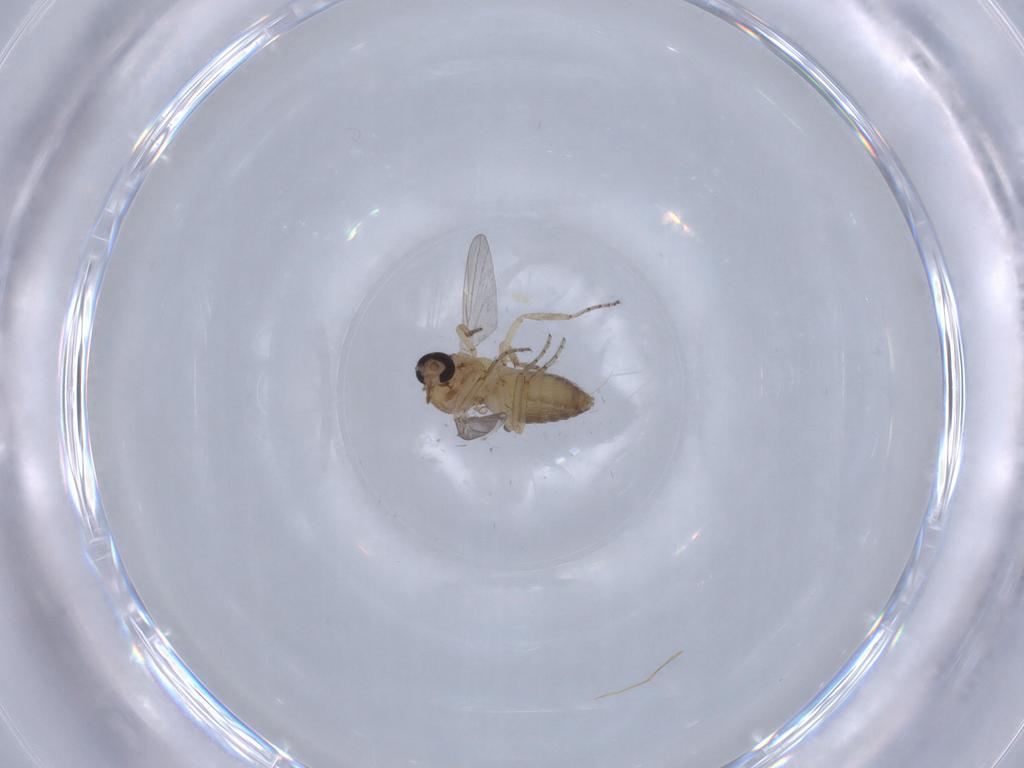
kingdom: Animalia
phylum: Arthropoda
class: Insecta
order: Diptera
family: Ceratopogonidae
